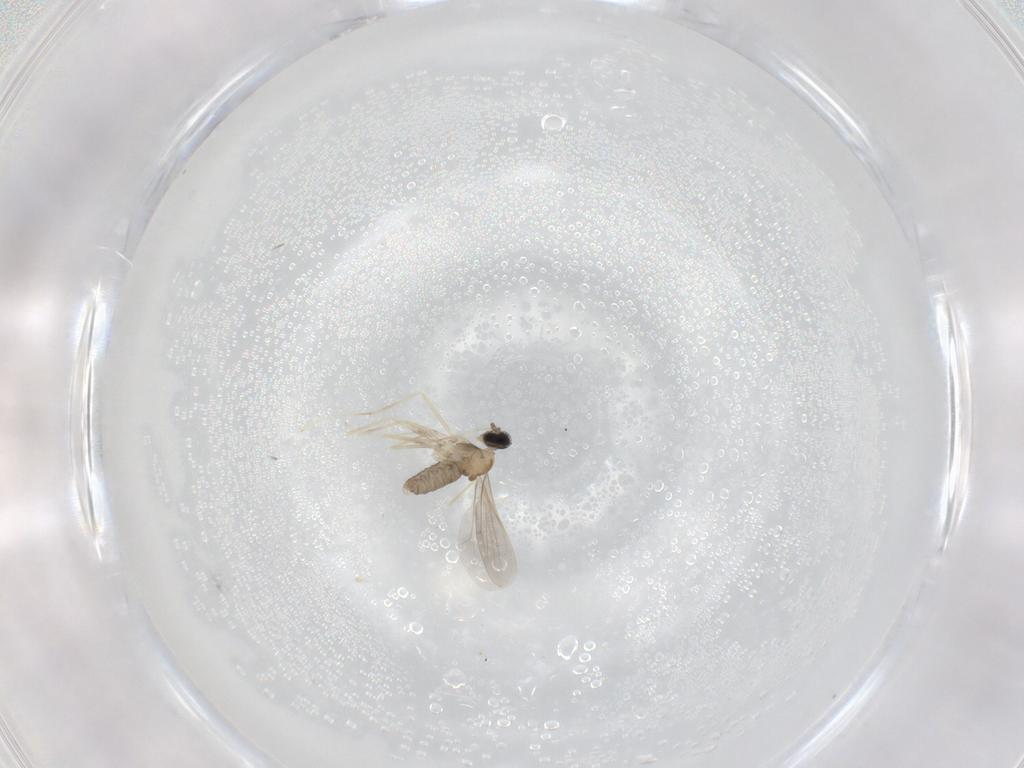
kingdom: Animalia
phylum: Arthropoda
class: Insecta
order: Diptera
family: Cecidomyiidae
